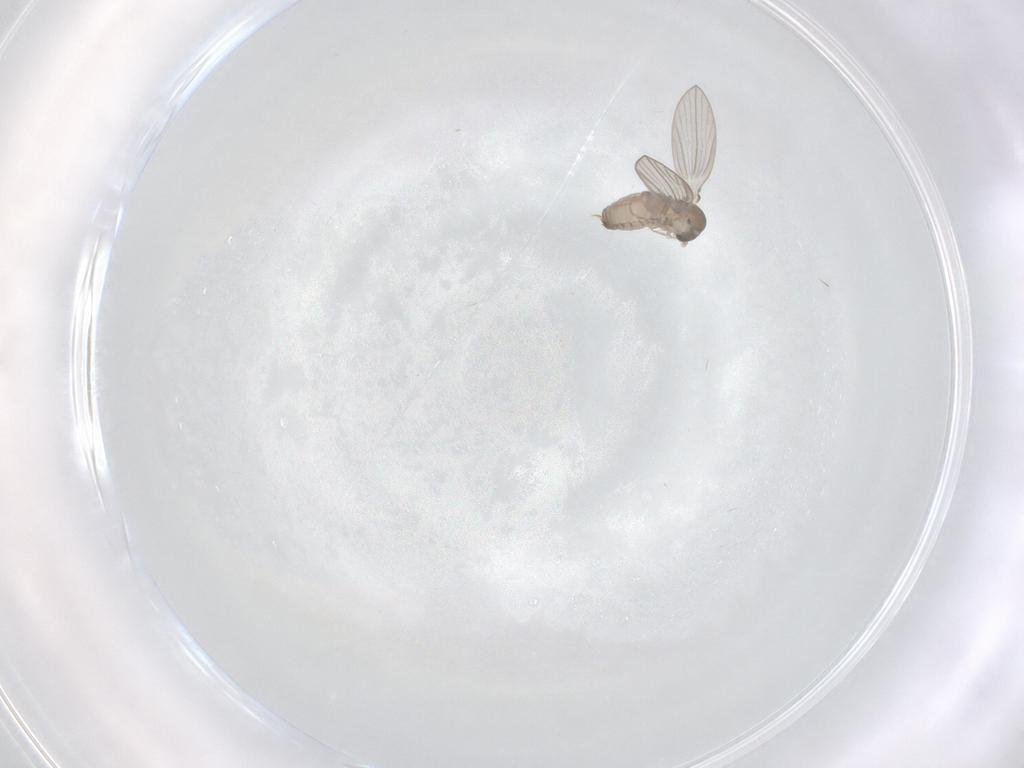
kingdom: Animalia
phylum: Arthropoda
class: Insecta
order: Diptera
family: Psychodidae
